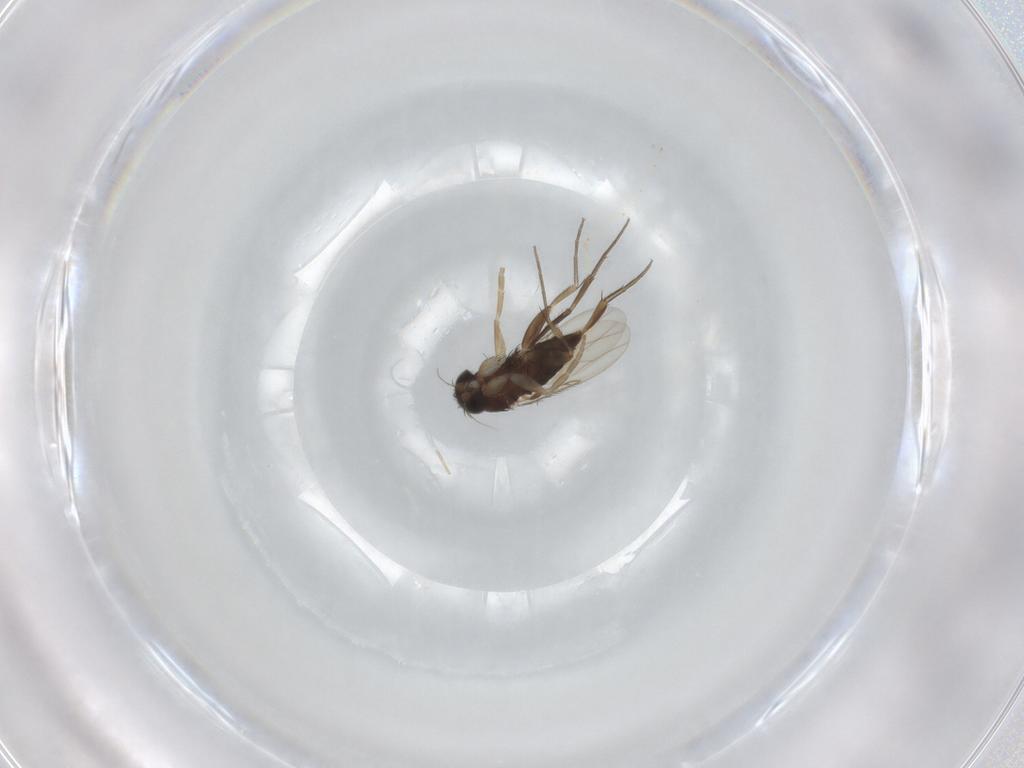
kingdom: Animalia
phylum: Arthropoda
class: Insecta
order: Diptera
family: Phoridae
